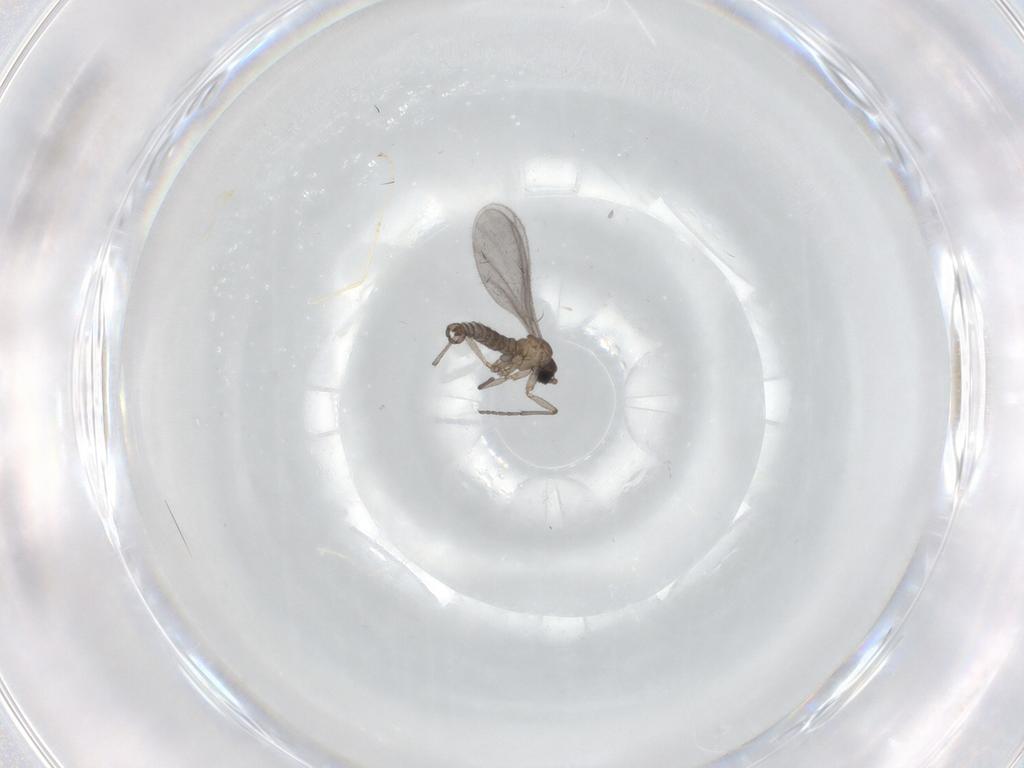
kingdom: Animalia
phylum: Arthropoda
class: Insecta
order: Diptera
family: Sciaridae
